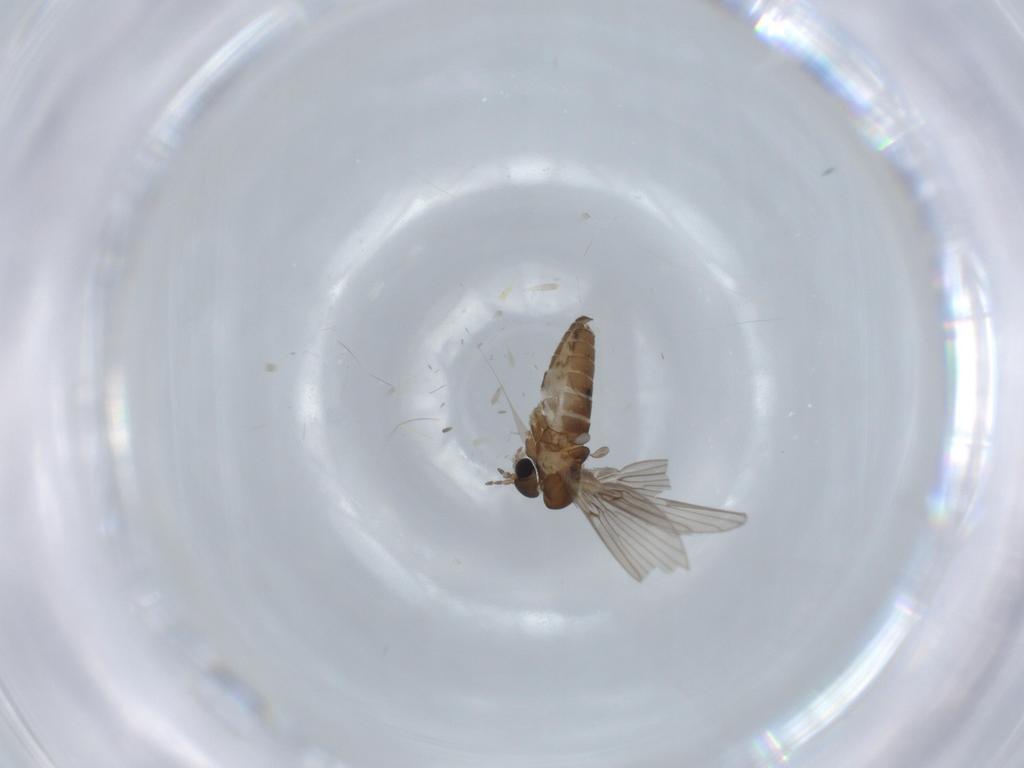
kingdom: Animalia
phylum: Arthropoda
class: Insecta
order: Diptera
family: Psychodidae
